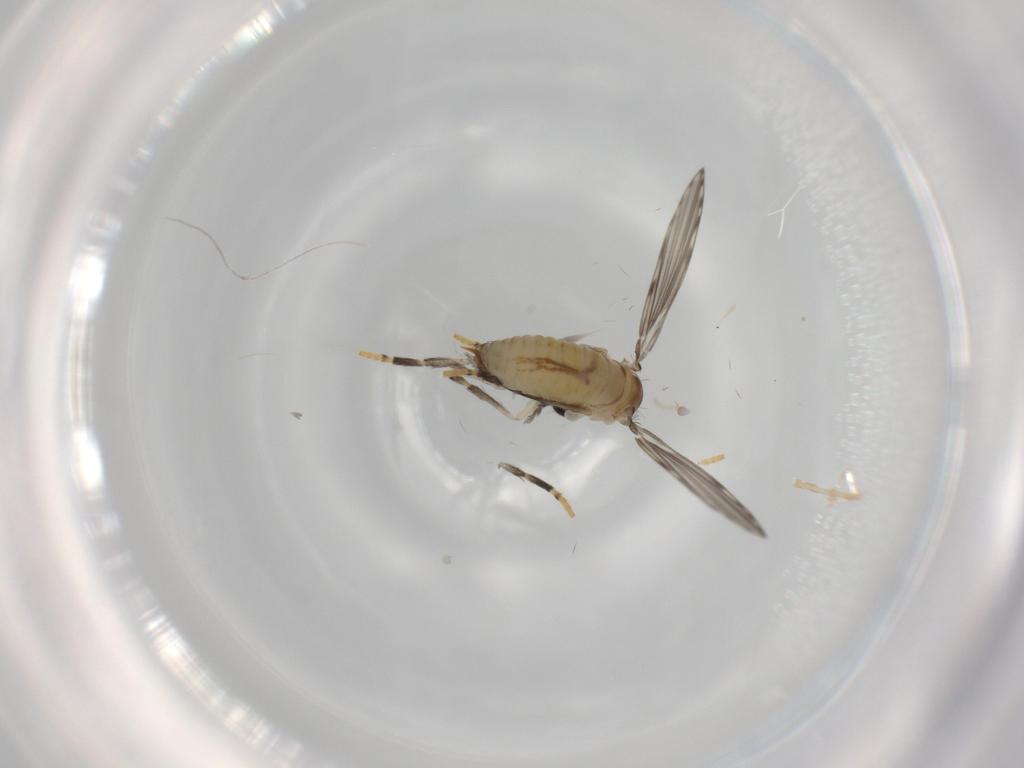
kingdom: Animalia
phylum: Arthropoda
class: Insecta
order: Diptera
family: Psychodidae
